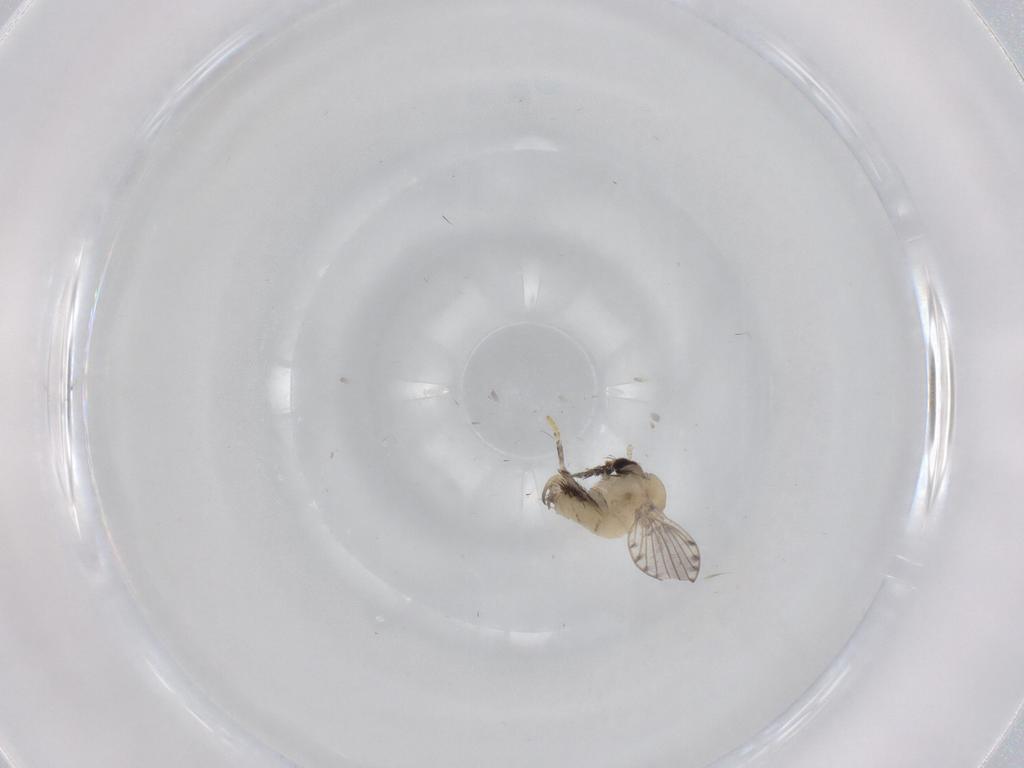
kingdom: Animalia
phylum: Arthropoda
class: Insecta
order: Diptera
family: Psychodidae
